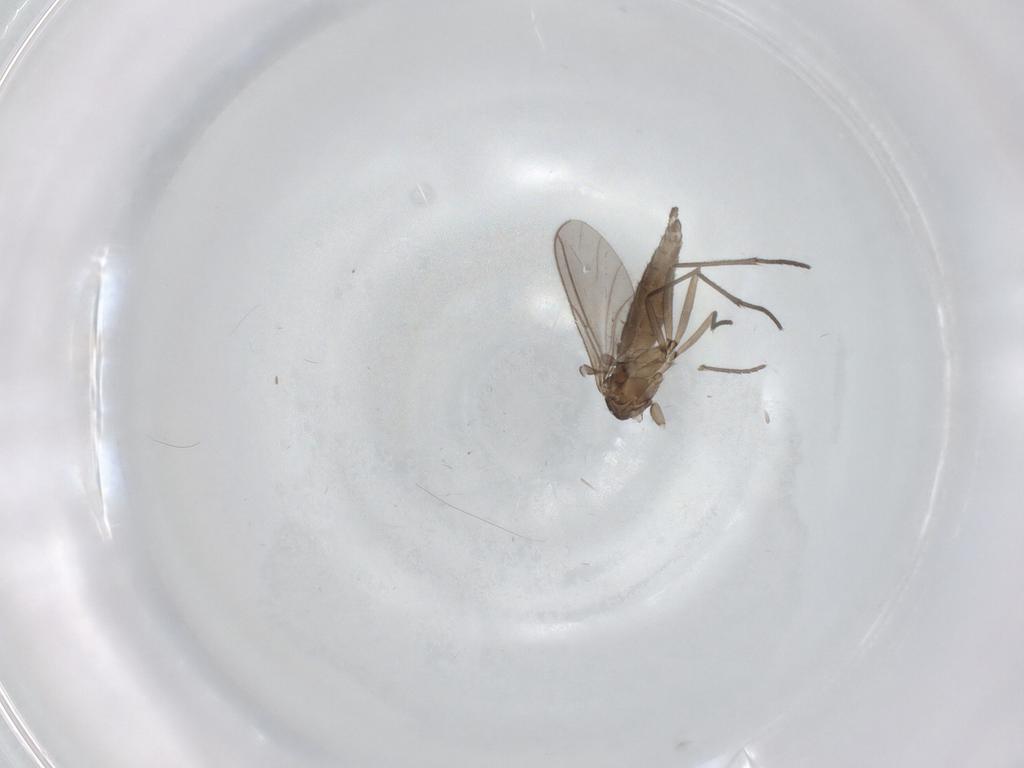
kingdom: Animalia
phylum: Arthropoda
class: Insecta
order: Diptera
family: Sciaridae
